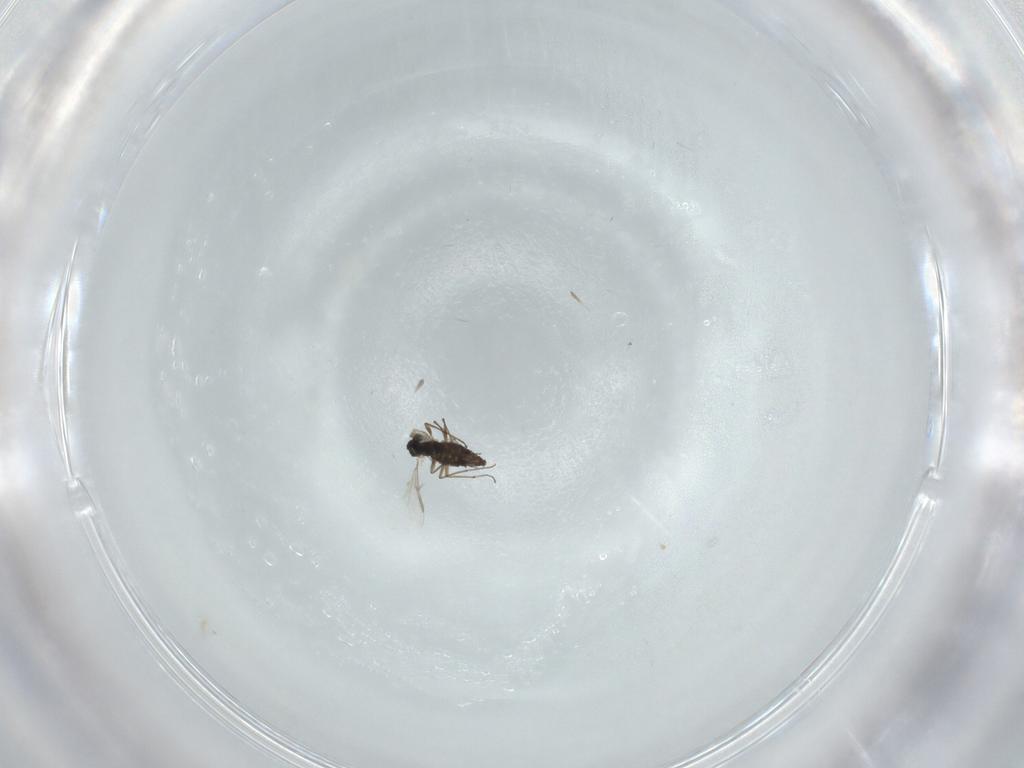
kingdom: Animalia
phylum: Arthropoda
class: Insecta
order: Diptera
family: Chironomidae
